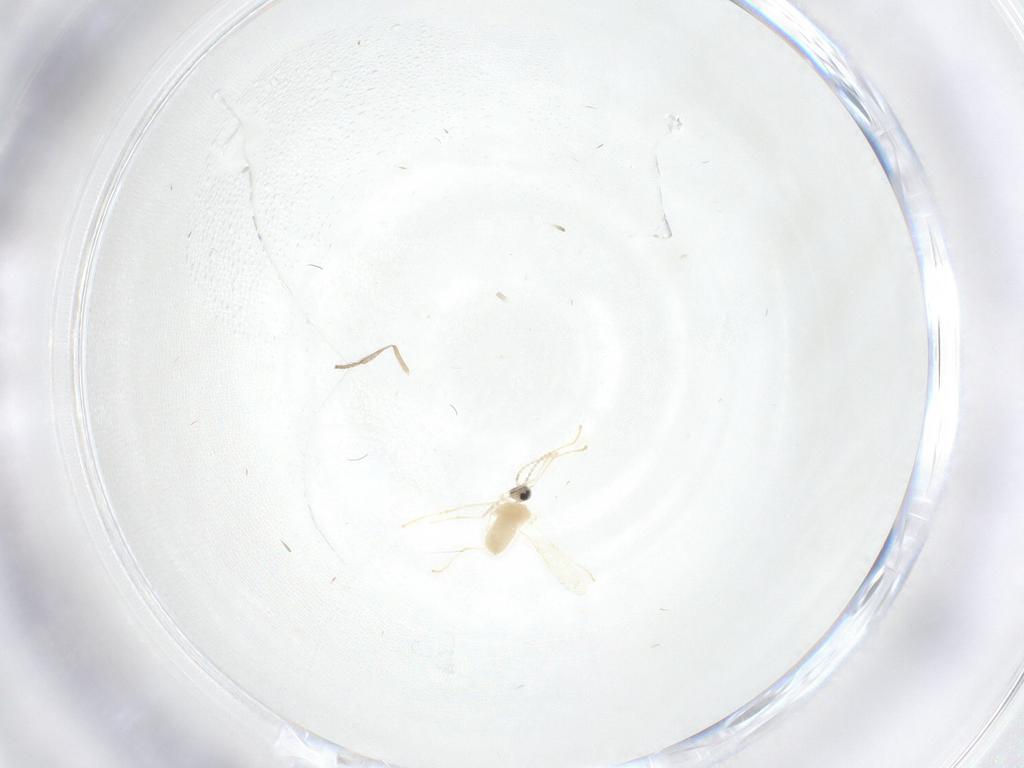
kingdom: Animalia
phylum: Arthropoda
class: Insecta
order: Diptera
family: Psychodidae
